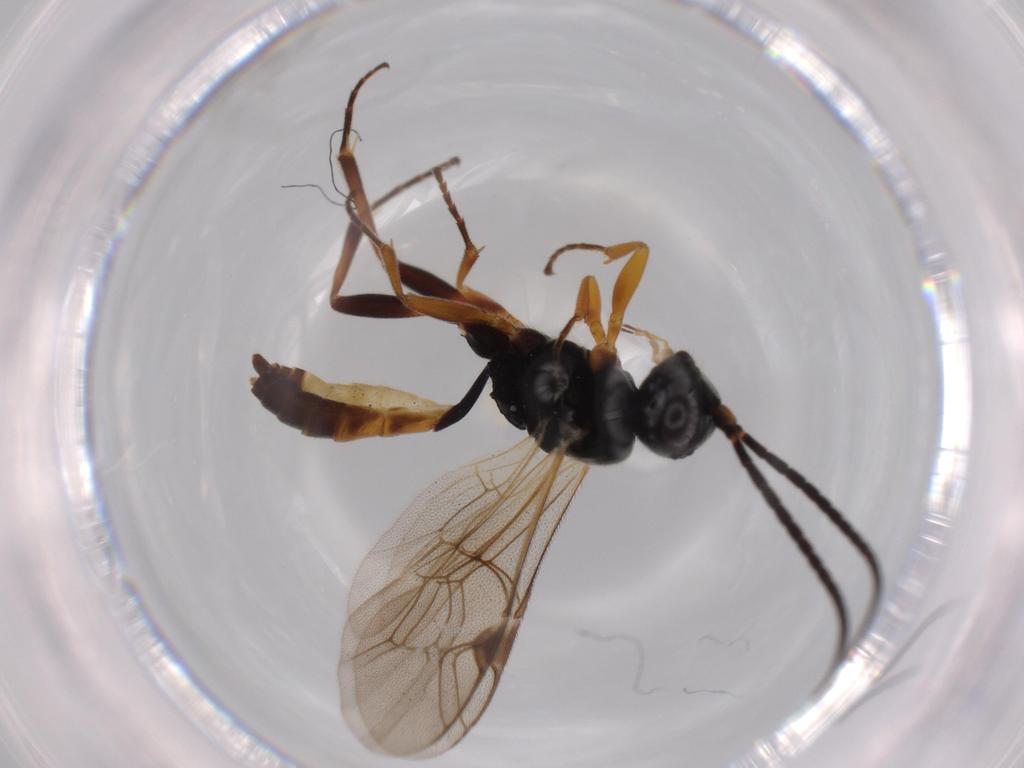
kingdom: Animalia
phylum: Arthropoda
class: Insecta
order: Hymenoptera
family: Ichneumonidae
